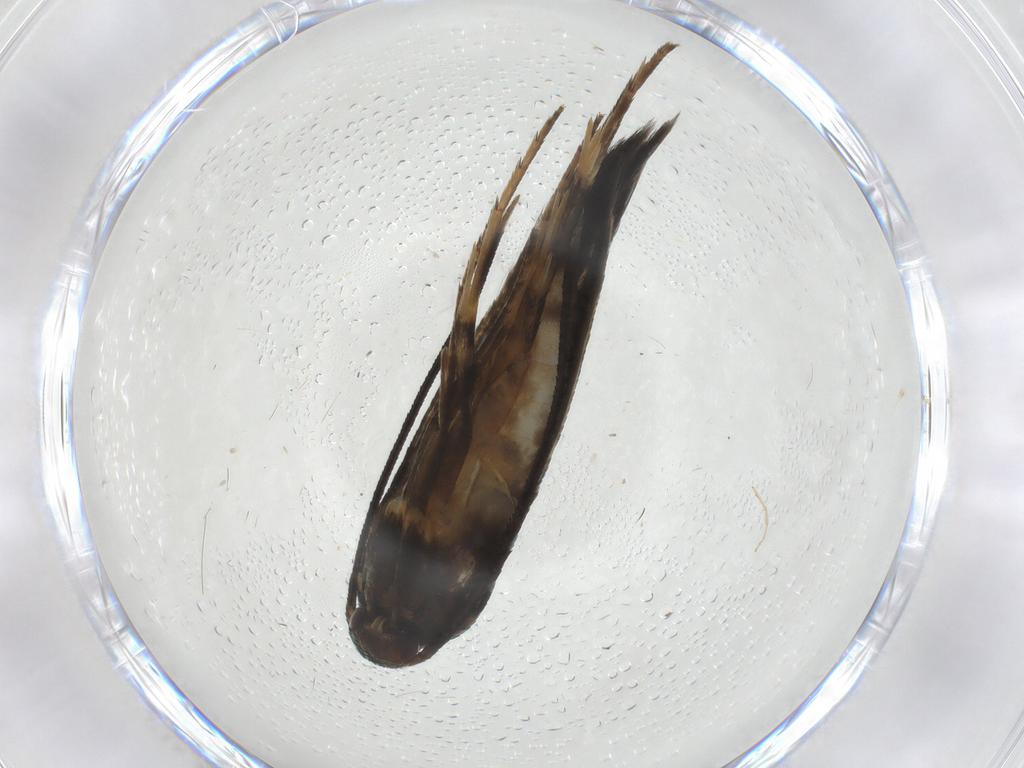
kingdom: Animalia
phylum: Arthropoda
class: Insecta
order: Lepidoptera
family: Heliodinidae
